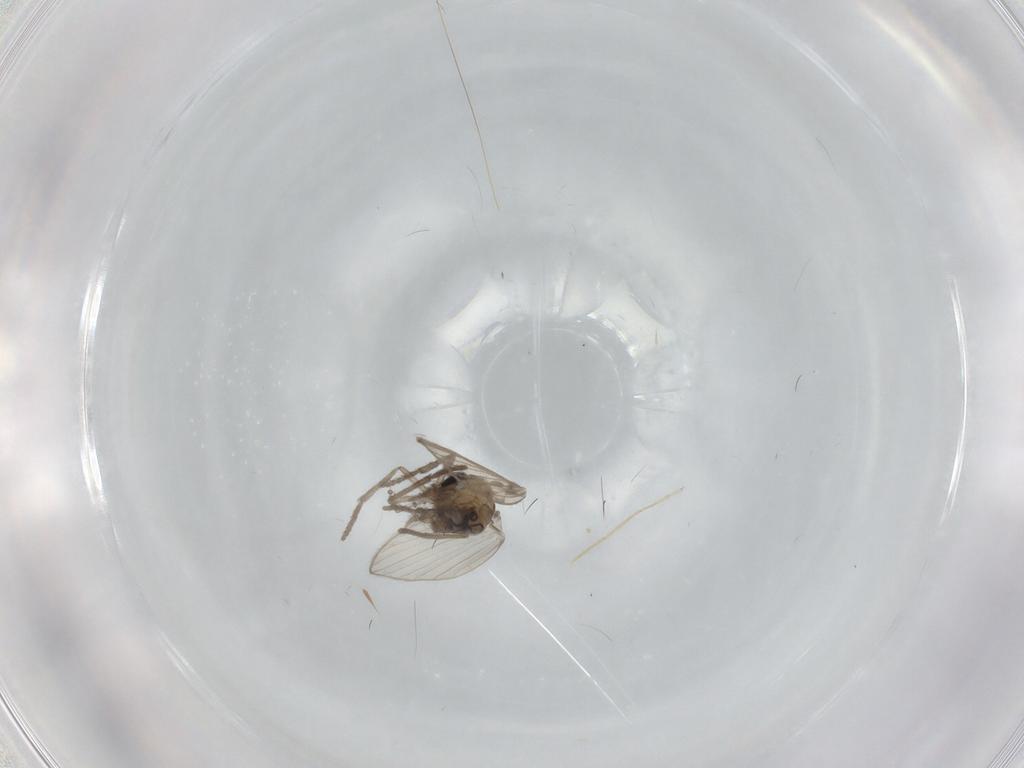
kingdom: Animalia
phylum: Arthropoda
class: Insecta
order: Diptera
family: Psychodidae
